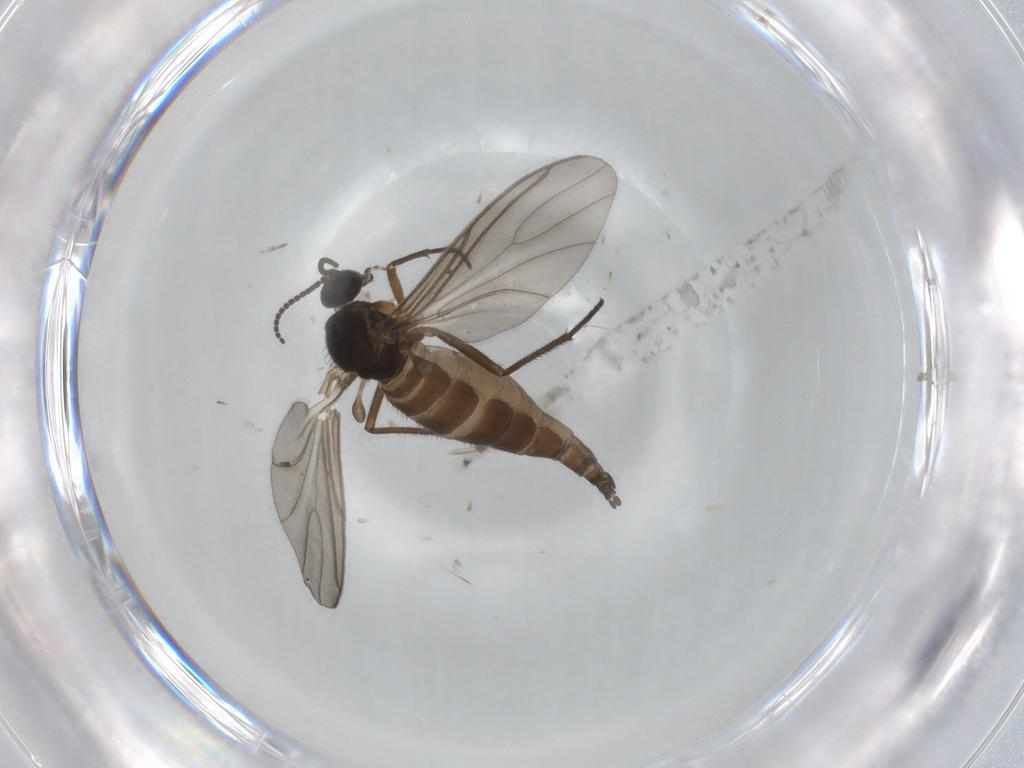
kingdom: Animalia
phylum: Arthropoda
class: Insecta
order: Diptera
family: Sciaridae
